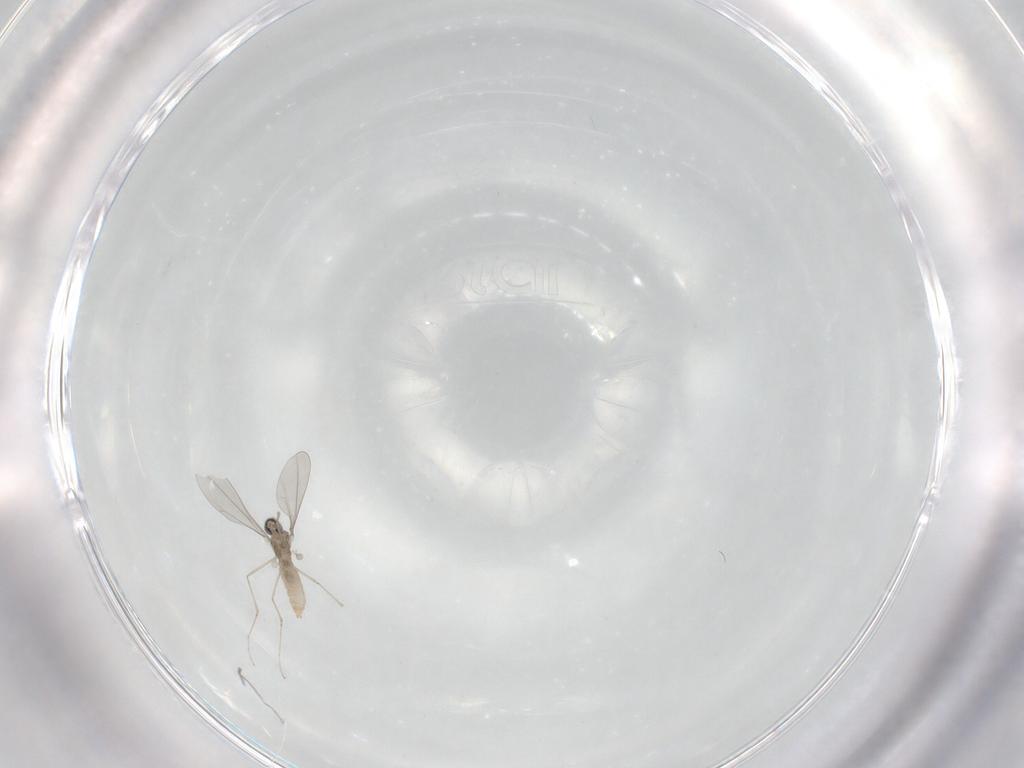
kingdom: Animalia
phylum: Arthropoda
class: Insecta
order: Diptera
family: Cecidomyiidae
